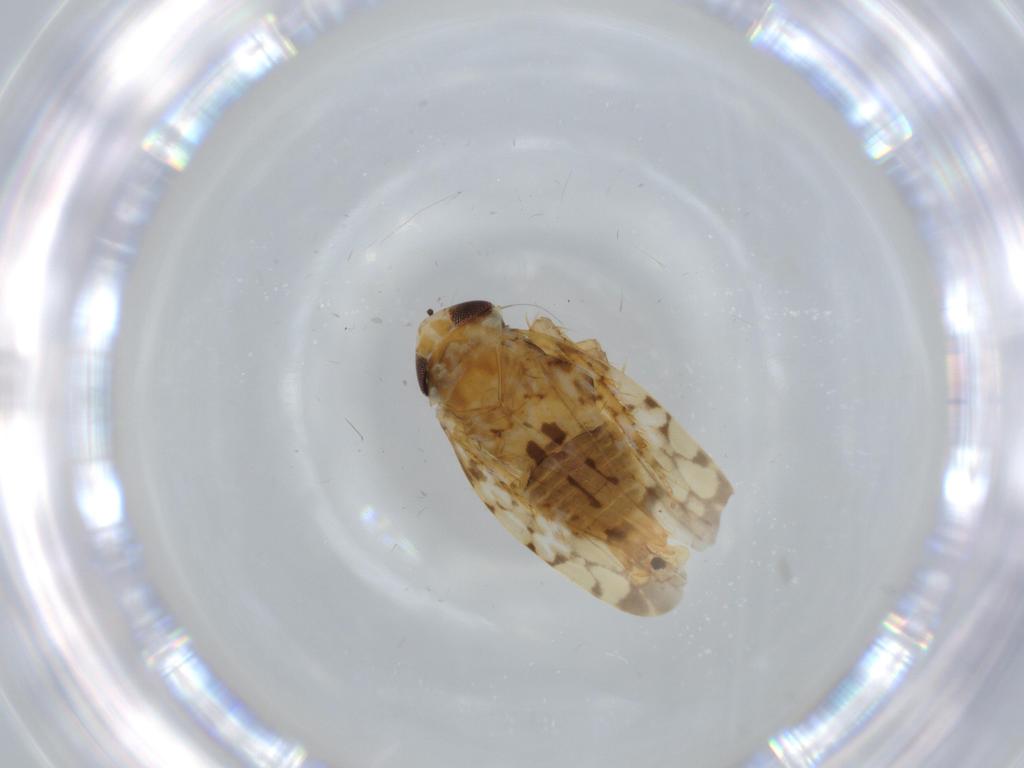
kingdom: Animalia
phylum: Arthropoda
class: Insecta
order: Hemiptera
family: Cicadellidae
